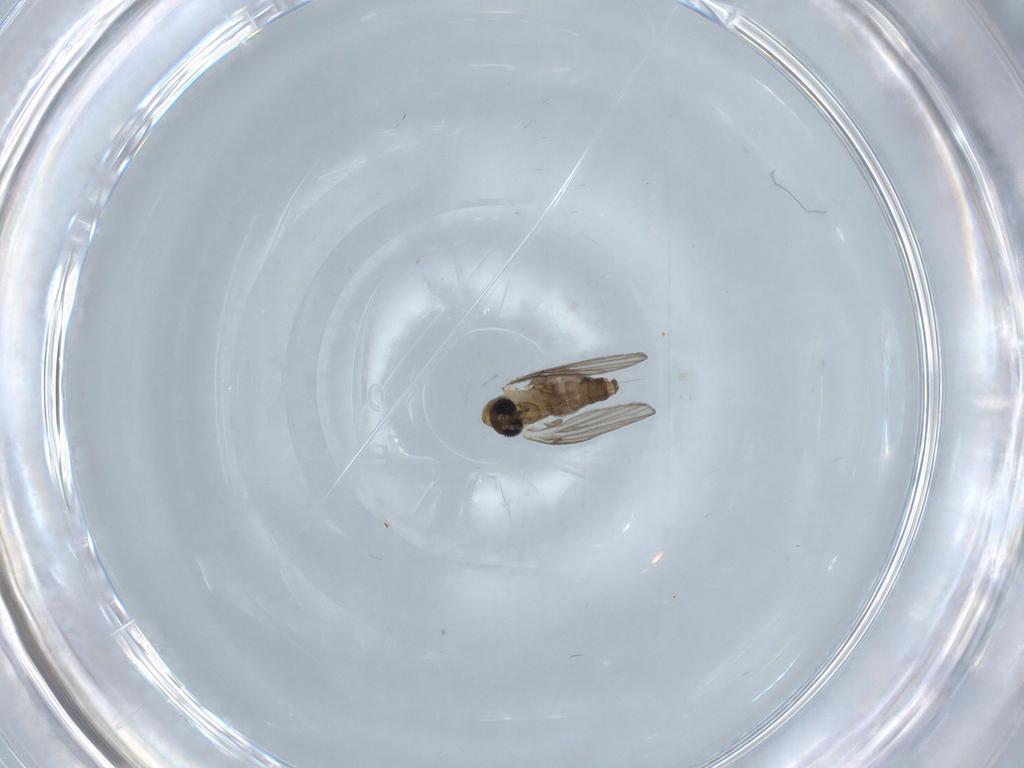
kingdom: Animalia
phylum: Arthropoda
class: Insecta
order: Diptera
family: Psychodidae
